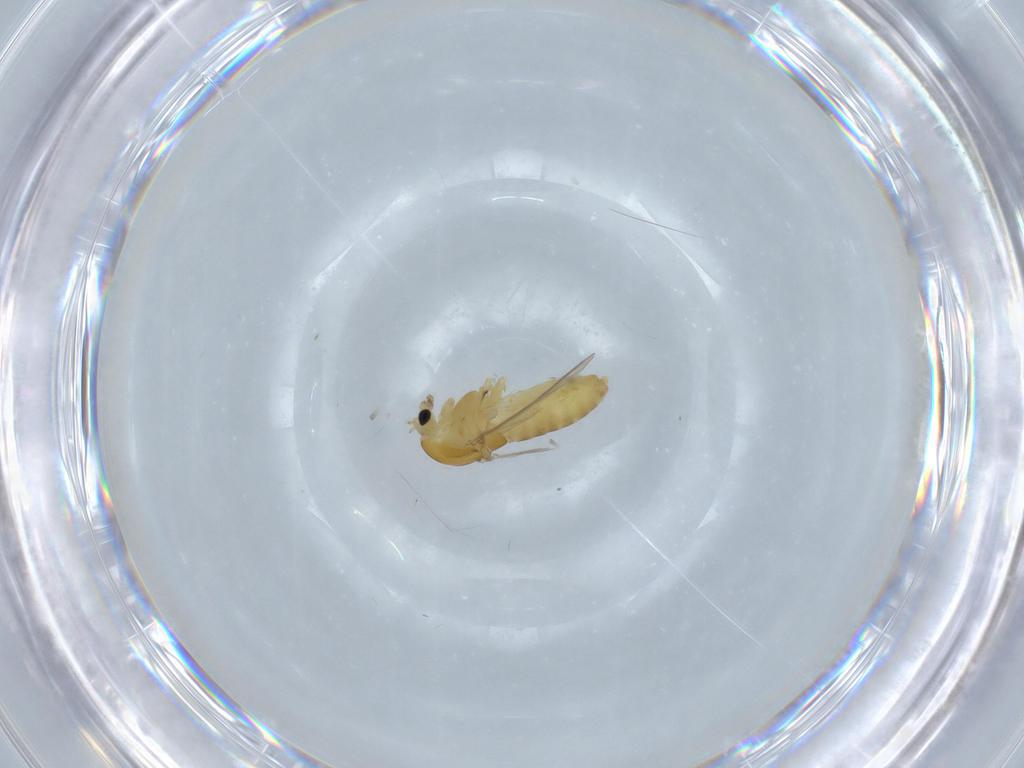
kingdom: Animalia
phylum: Arthropoda
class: Insecta
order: Diptera
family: Chironomidae
